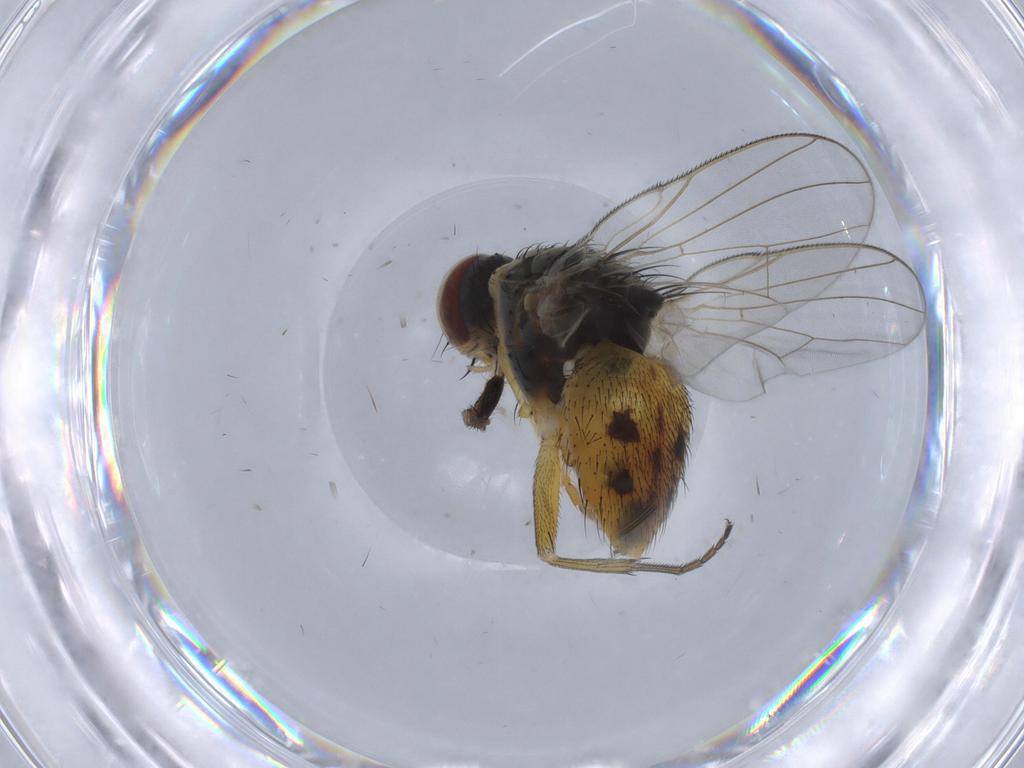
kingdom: Animalia
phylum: Arthropoda
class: Insecta
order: Diptera
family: Muscidae
